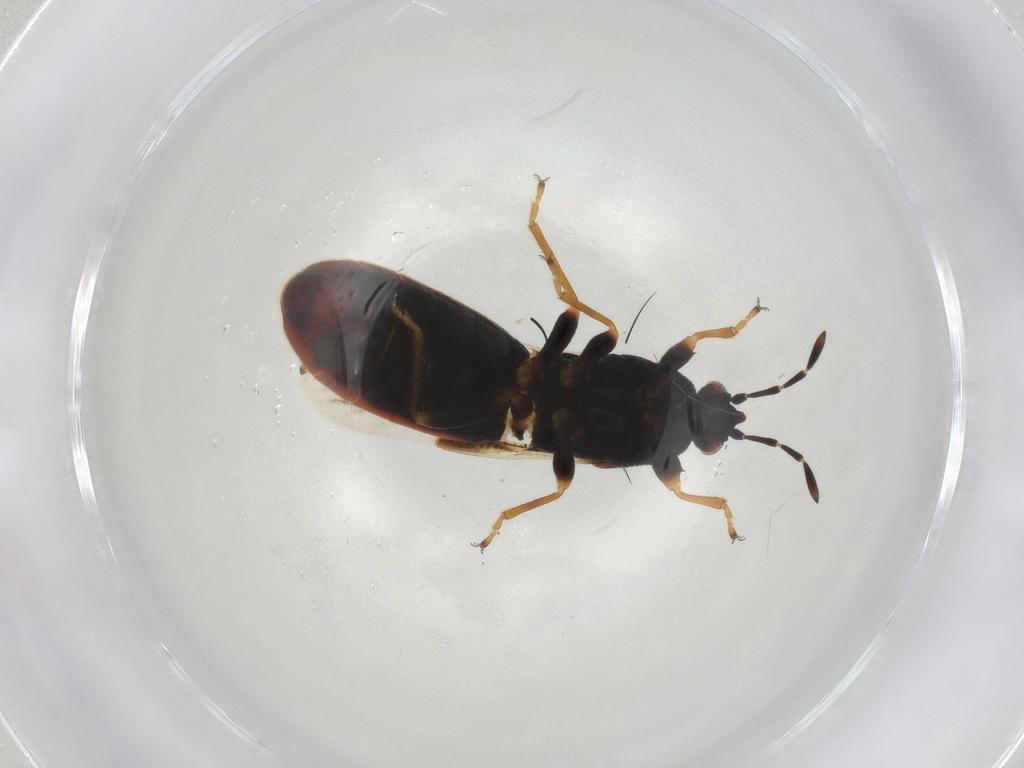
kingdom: Animalia
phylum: Arthropoda
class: Insecta
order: Hemiptera
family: Blissidae
